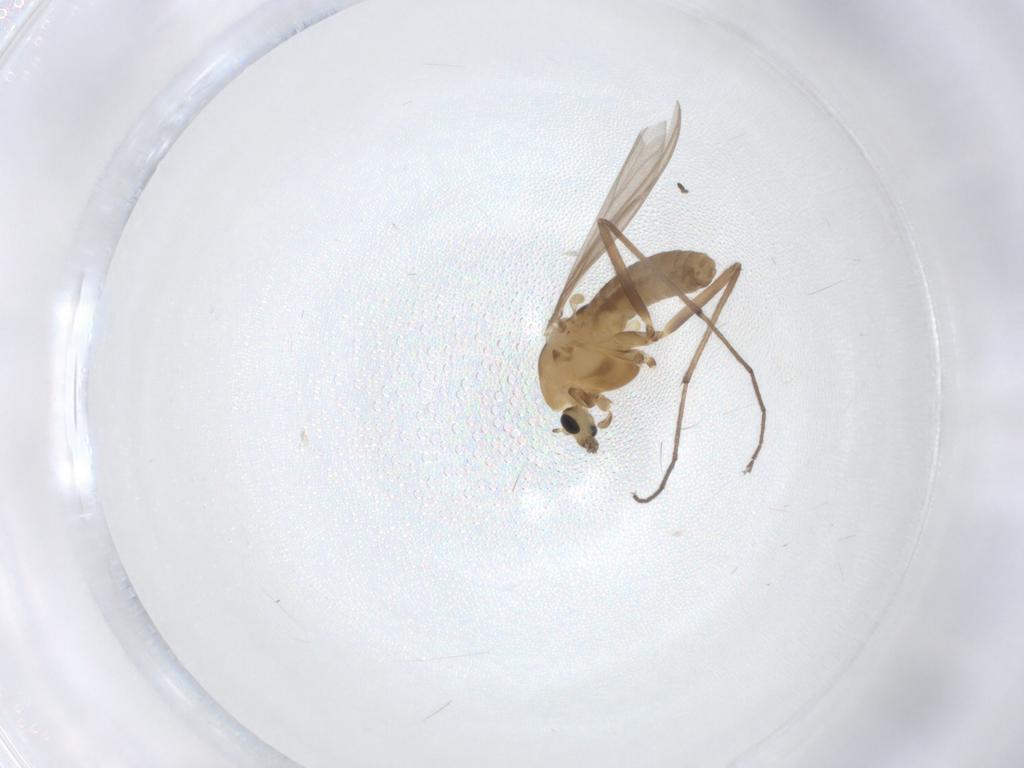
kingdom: Animalia
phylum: Arthropoda
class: Insecta
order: Diptera
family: Chironomidae
